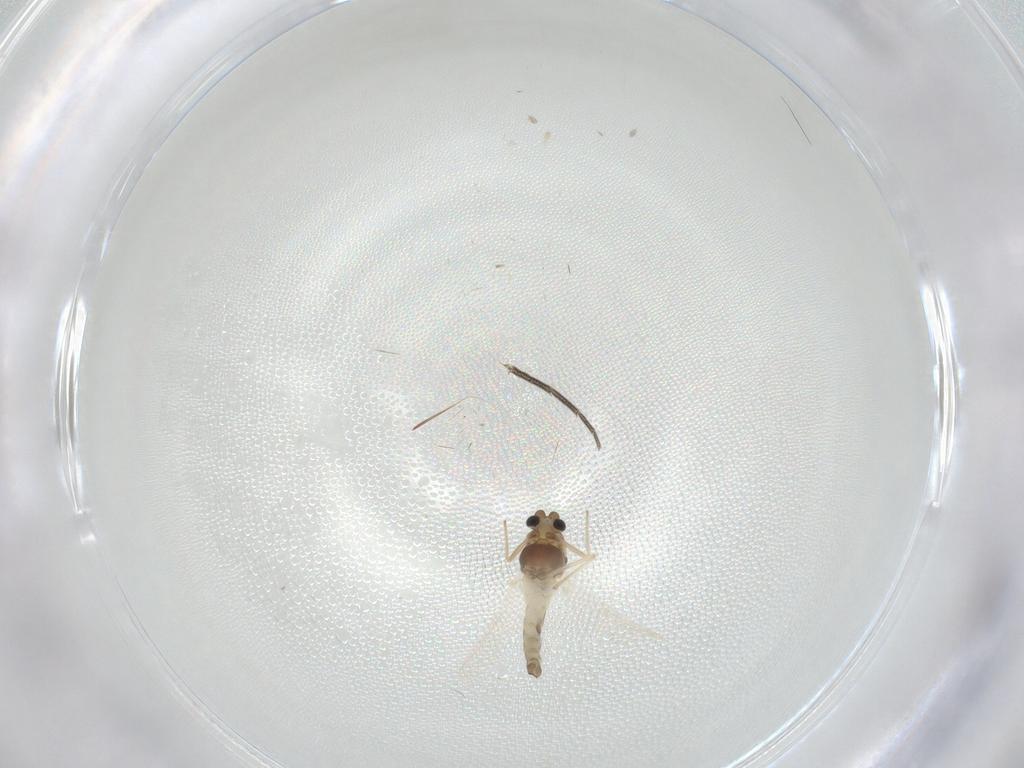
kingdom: Animalia
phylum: Arthropoda
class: Insecta
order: Diptera
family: Chironomidae
